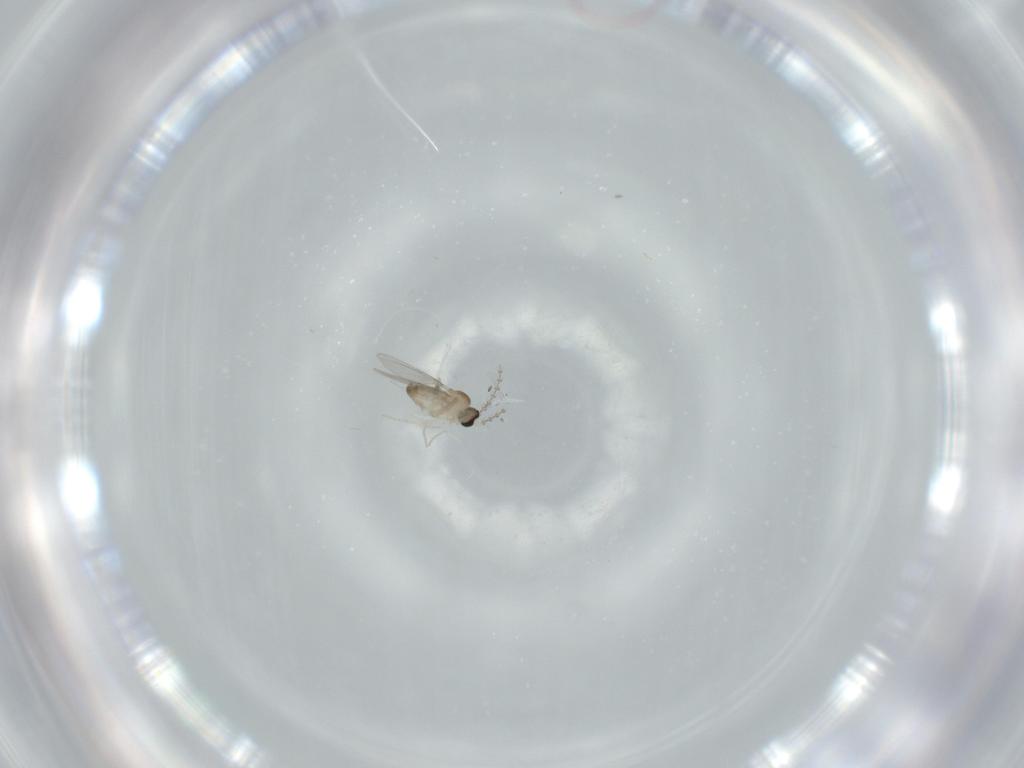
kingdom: Animalia
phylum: Arthropoda
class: Insecta
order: Diptera
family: Cecidomyiidae
